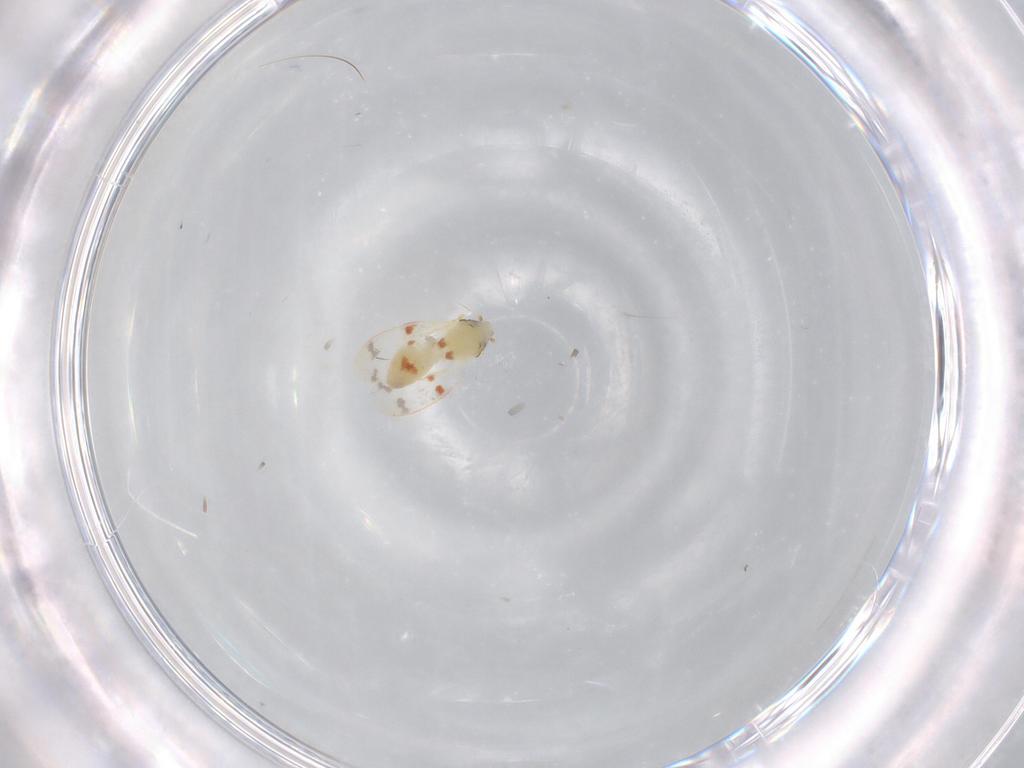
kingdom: Animalia
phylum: Arthropoda
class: Insecta
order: Hemiptera
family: Aleyrodidae
